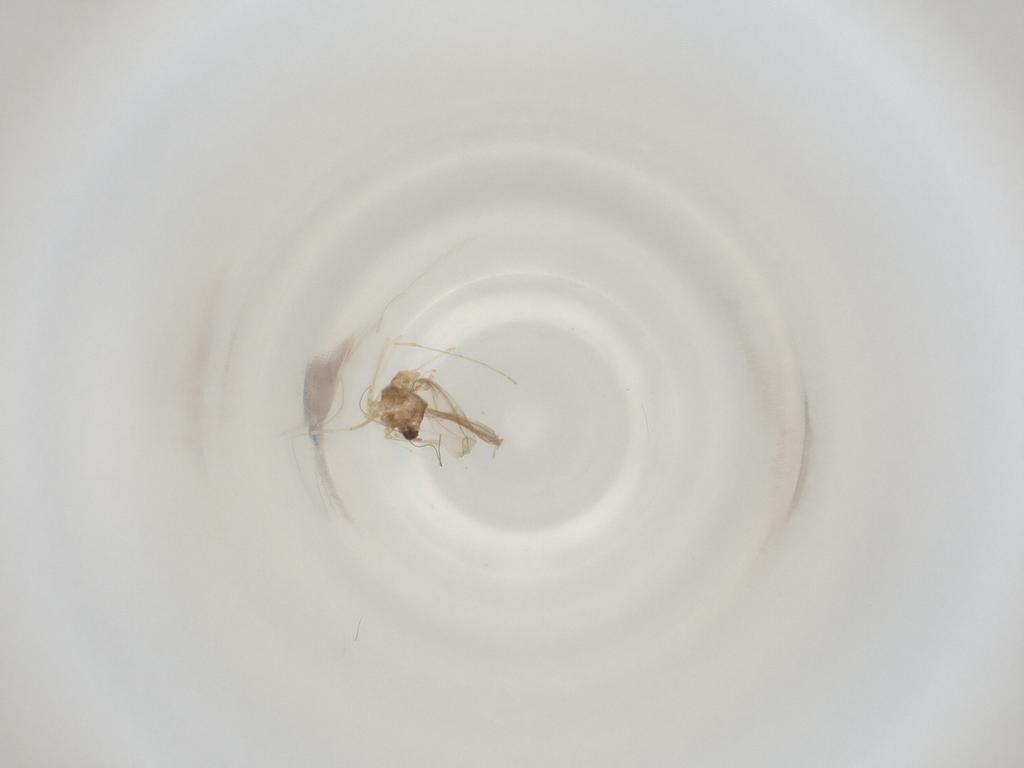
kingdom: Animalia
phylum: Arthropoda
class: Insecta
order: Diptera
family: Cecidomyiidae
